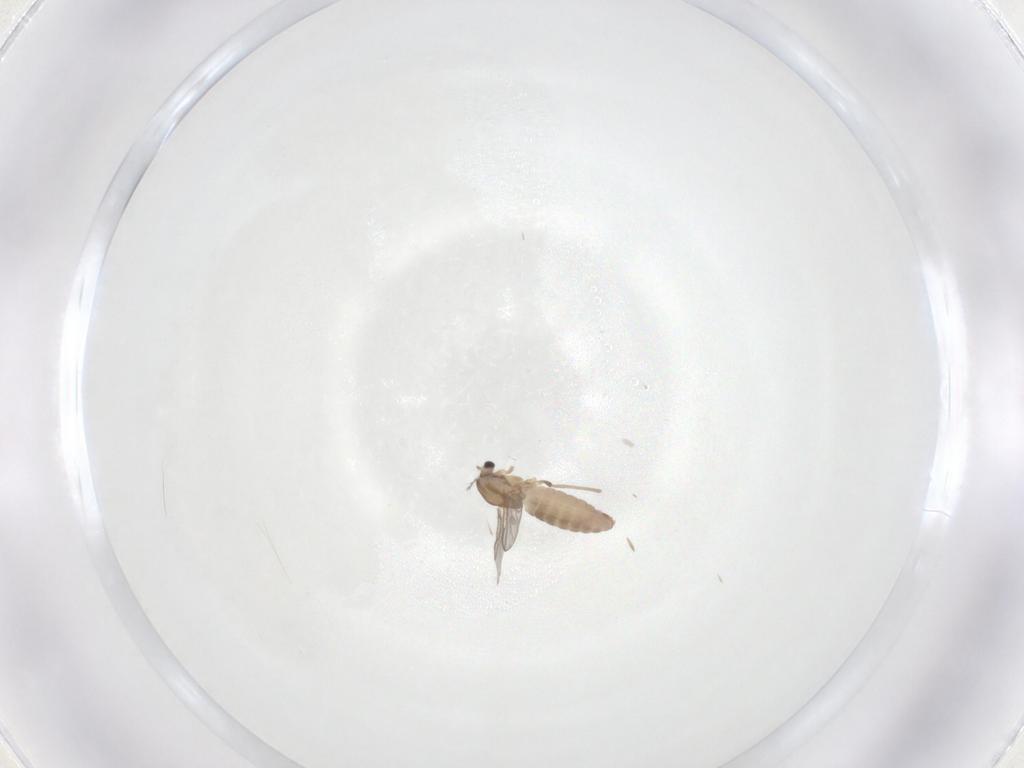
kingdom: Animalia
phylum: Arthropoda
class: Insecta
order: Diptera
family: Chironomidae
